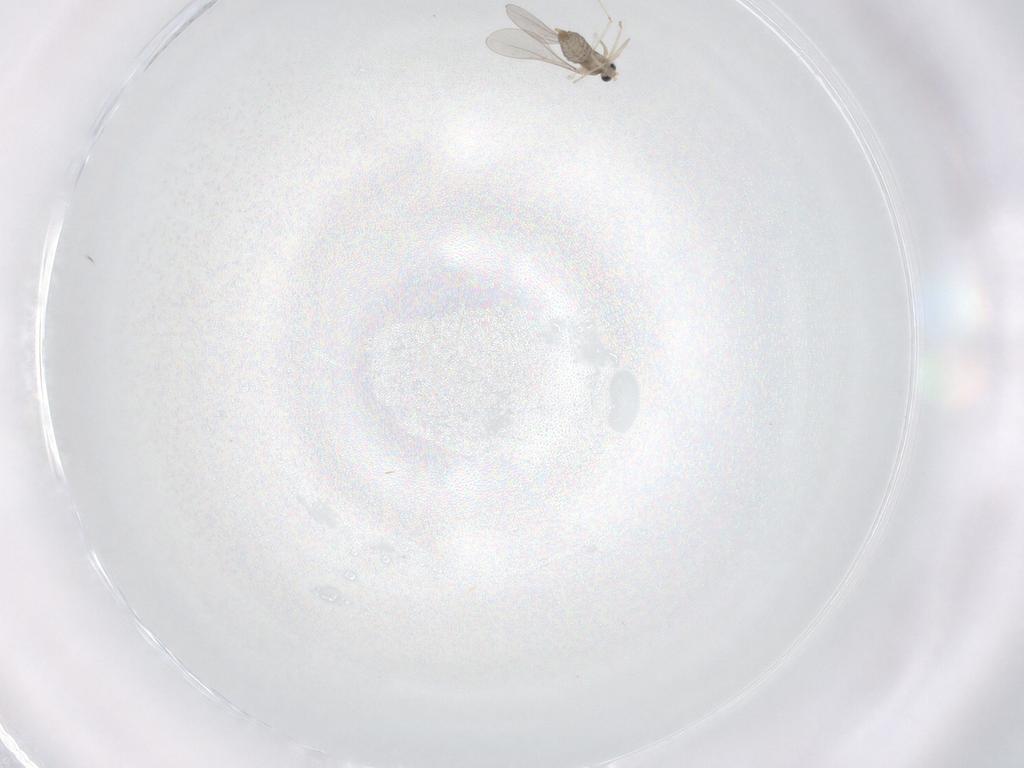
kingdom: Animalia
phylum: Arthropoda
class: Insecta
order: Diptera
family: Cecidomyiidae
